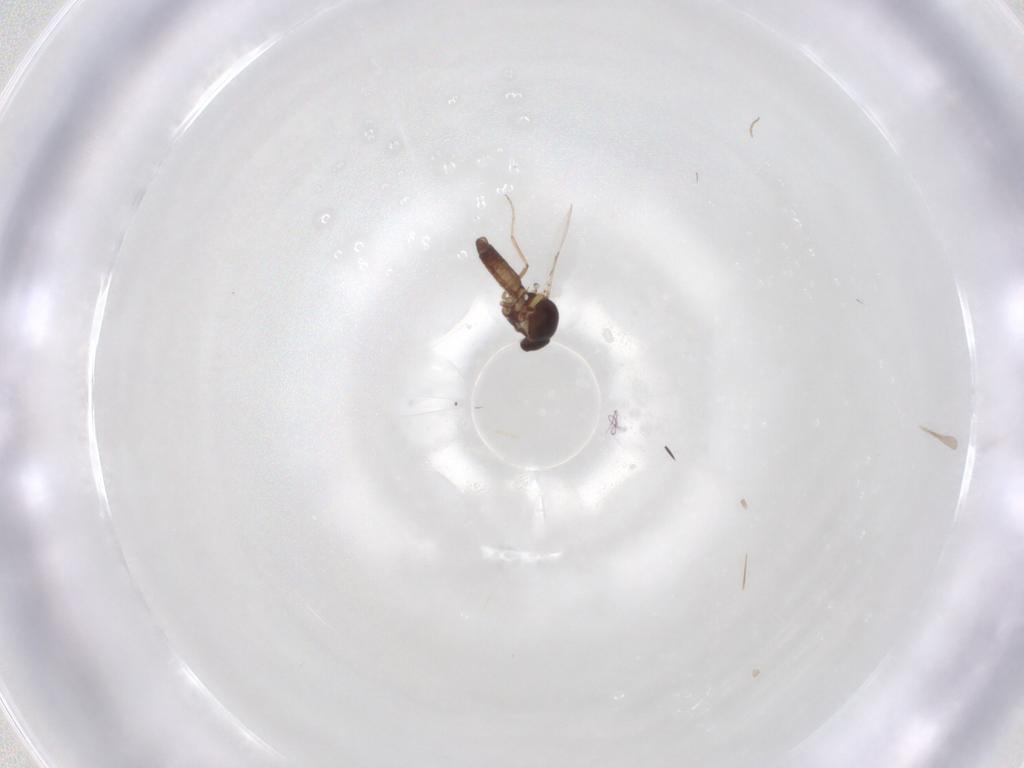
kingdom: Animalia
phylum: Arthropoda
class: Insecta
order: Diptera
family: Ceratopogonidae
